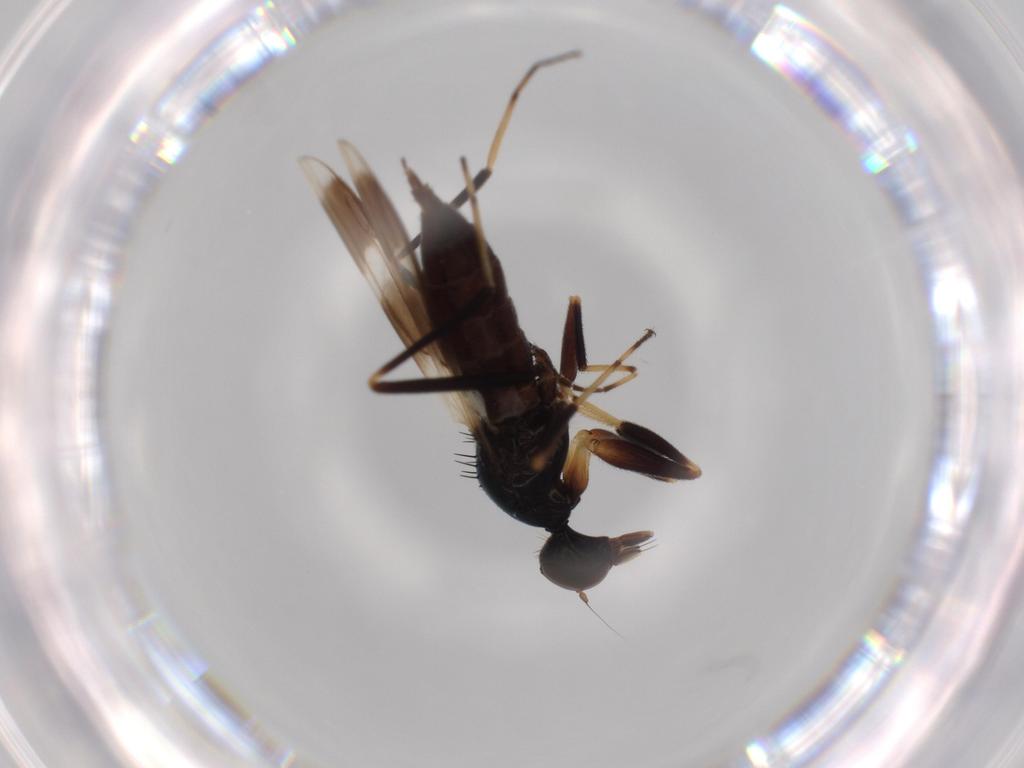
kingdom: Animalia
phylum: Arthropoda
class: Insecta
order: Diptera
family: Hybotidae
